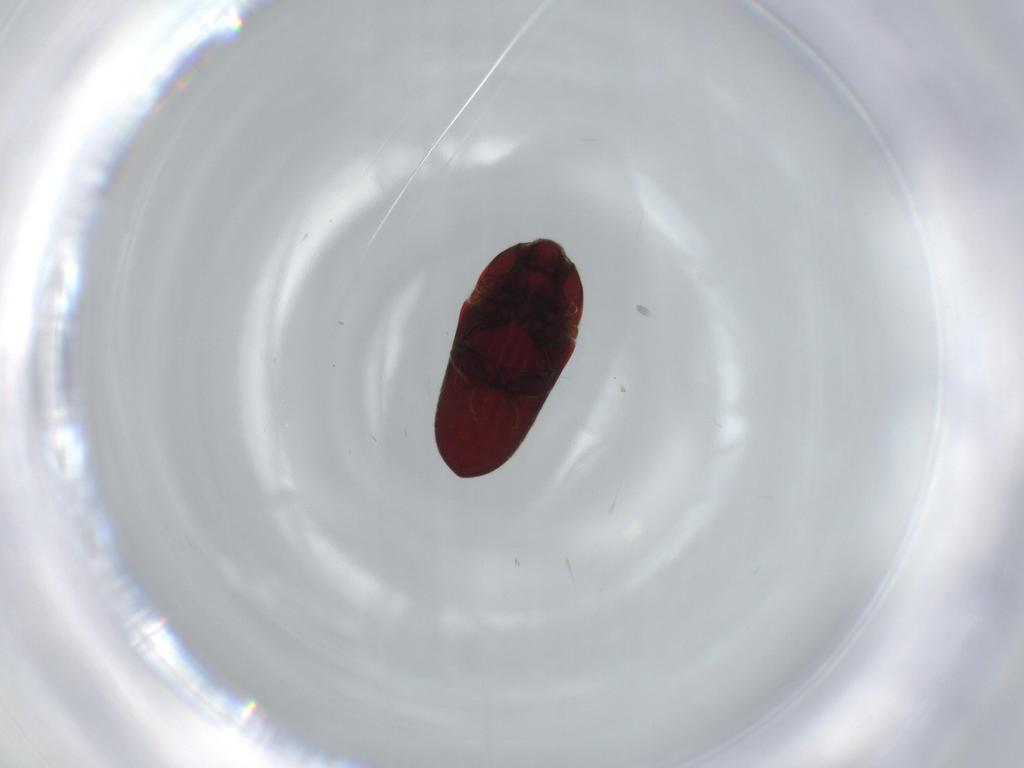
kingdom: Animalia
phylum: Arthropoda
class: Insecta
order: Coleoptera
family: Throscidae
